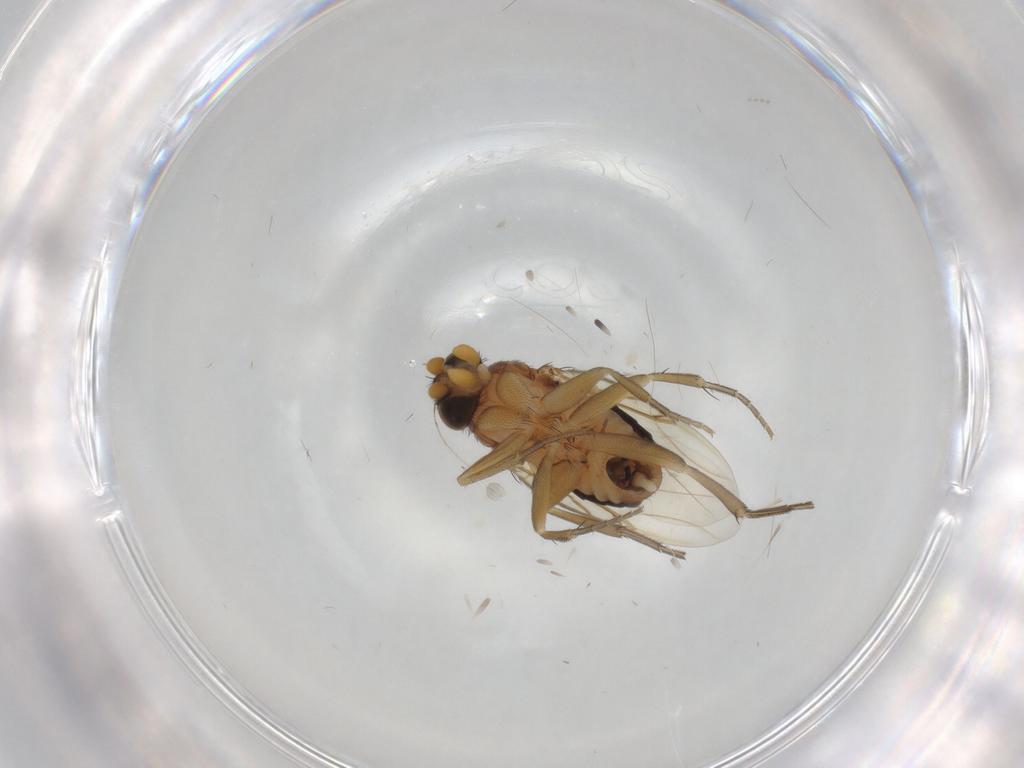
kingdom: Animalia
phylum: Arthropoda
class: Insecta
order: Diptera
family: Cecidomyiidae
